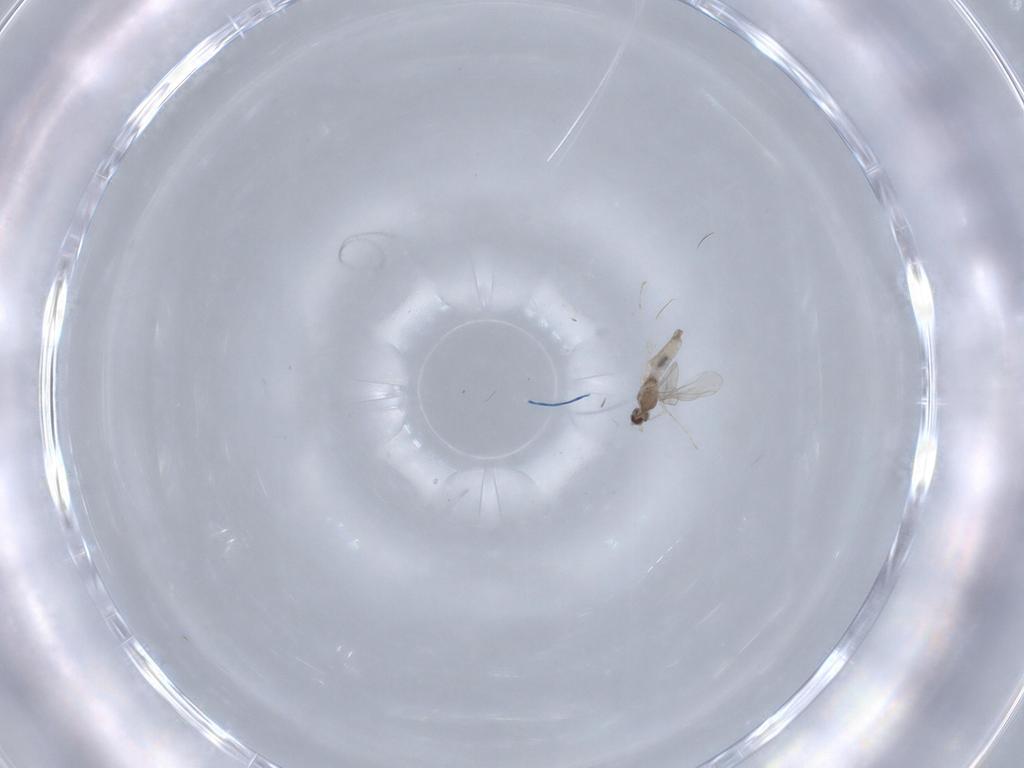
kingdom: Animalia
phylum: Arthropoda
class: Insecta
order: Diptera
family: Cecidomyiidae
